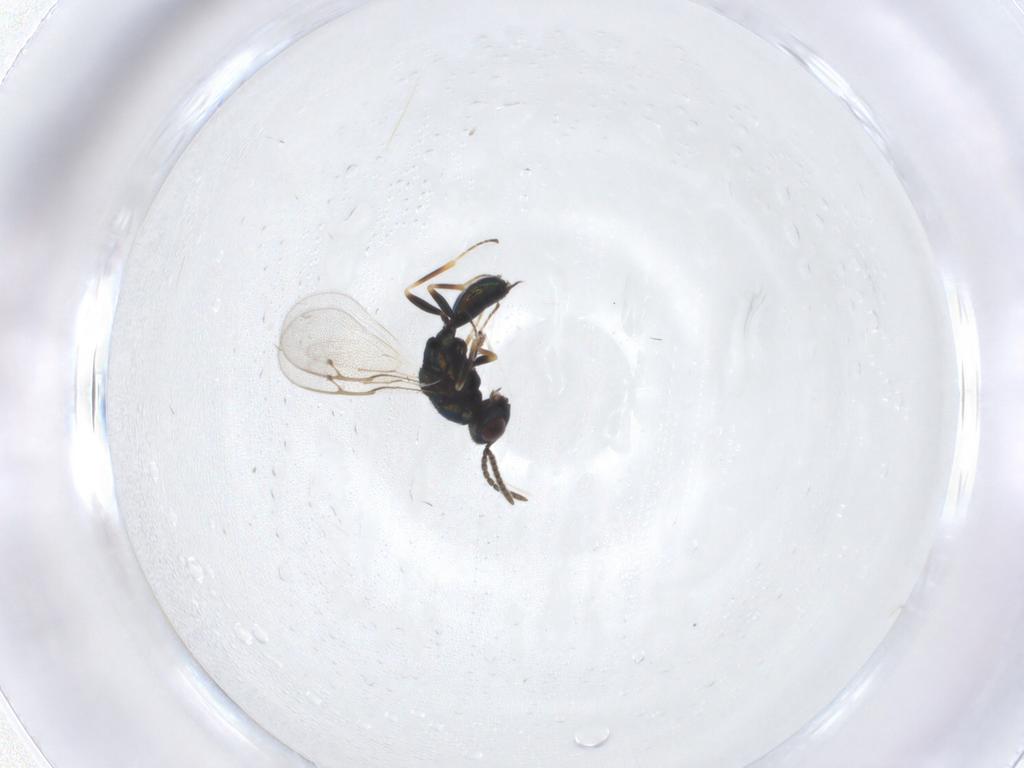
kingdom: Animalia
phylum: Arthropoda
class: Insecta
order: Hymenoptera
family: Pteromalidae
